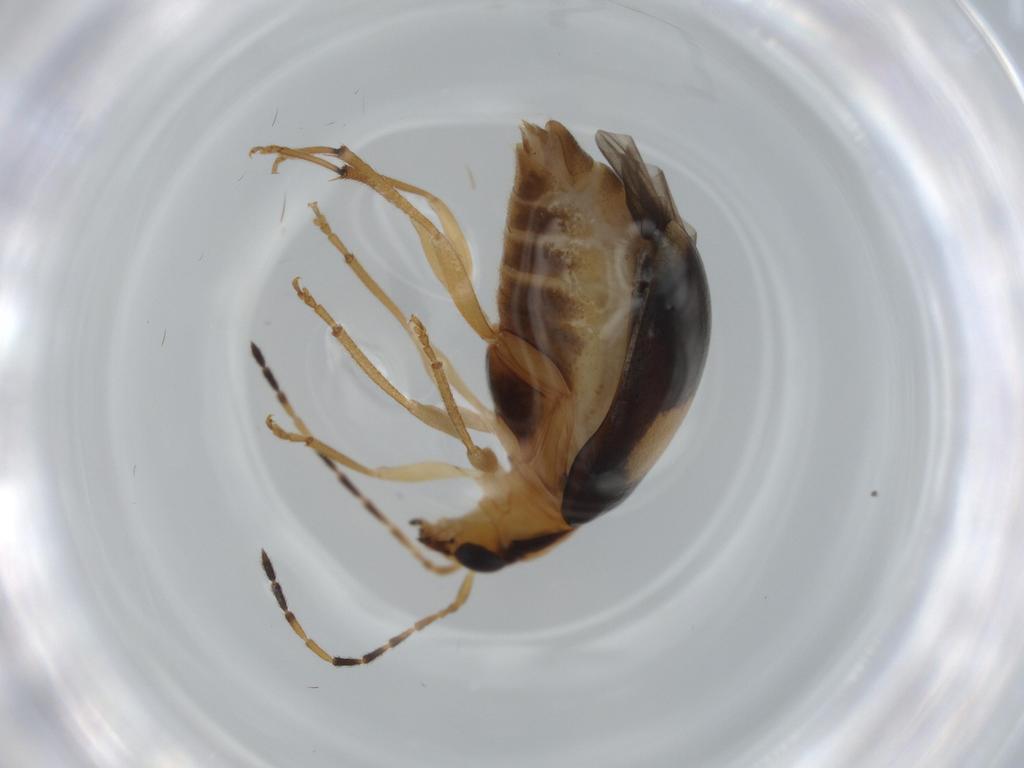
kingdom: Animalia
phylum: Arthropoda
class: Insecta
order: Coleoptera
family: Chrysomelidae
